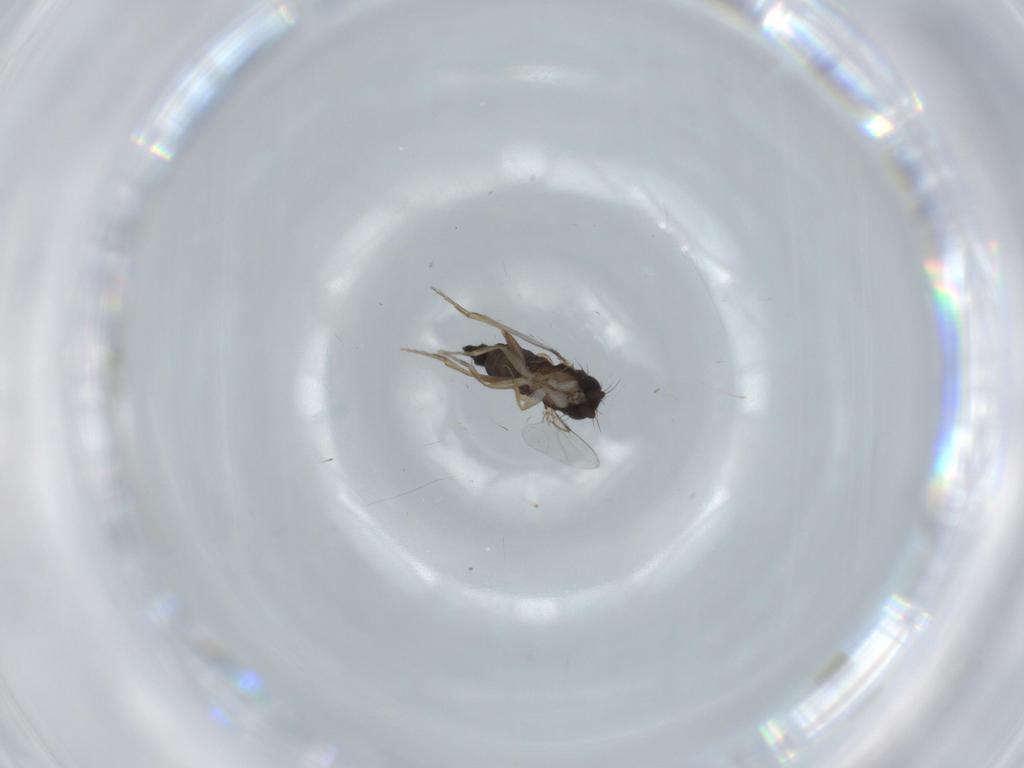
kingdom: Animalia
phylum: Arthropoda
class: Insecta
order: Diptera
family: Phoridae
